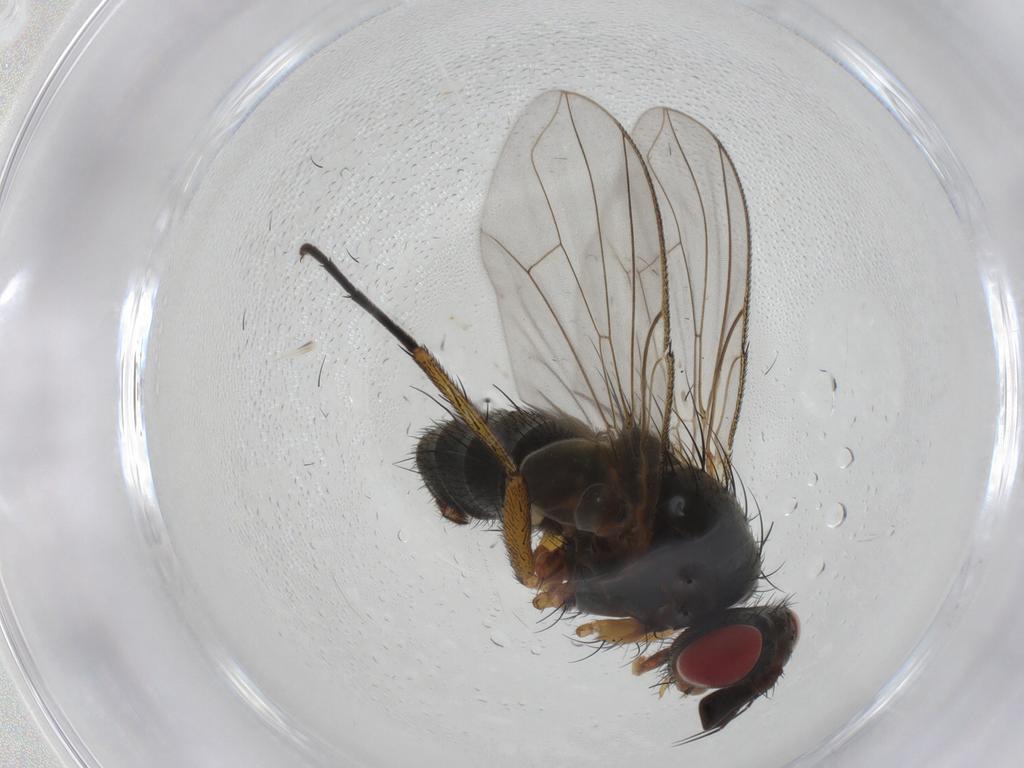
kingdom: Animalia
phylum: Arthropoda
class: Insecta
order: Diptera
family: Anthomyiidae
